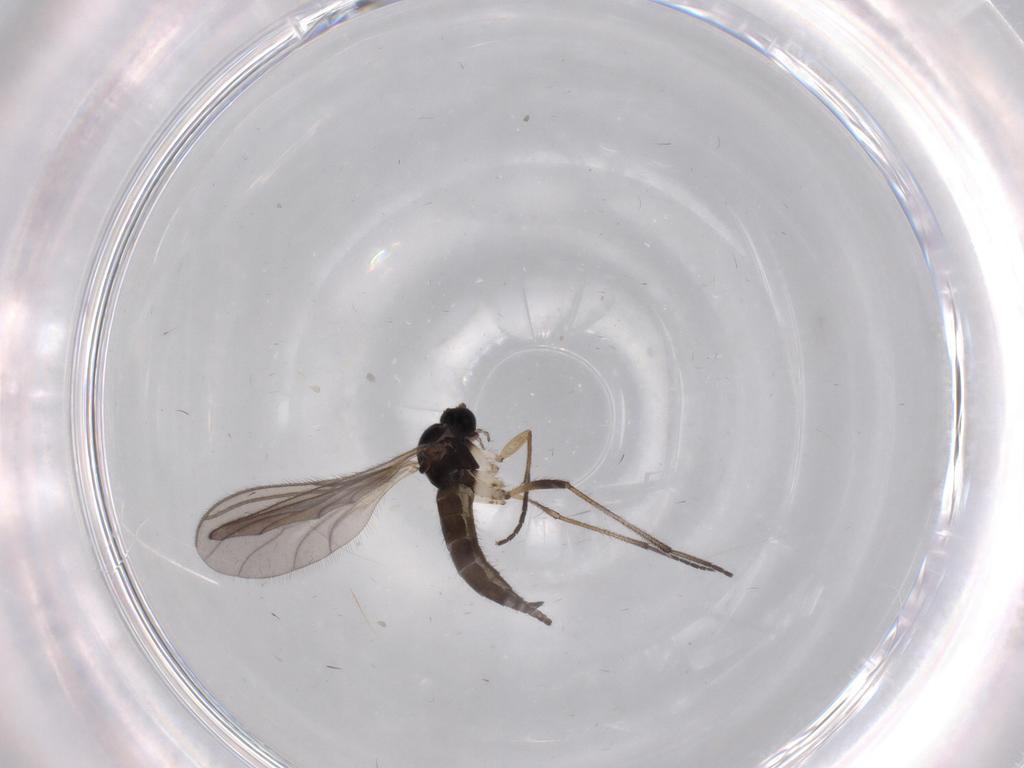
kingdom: Animalia
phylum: Arthropoda
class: Insecta
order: Diptera
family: Sciaridae
